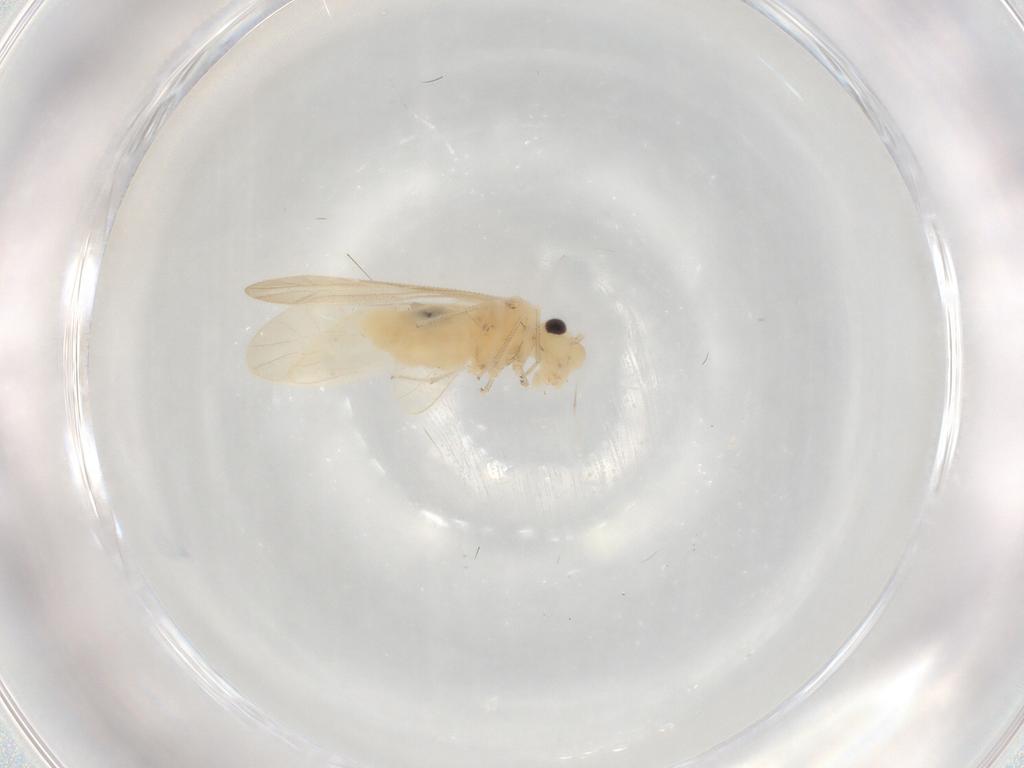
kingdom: Animalia
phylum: Arthropoda
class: Insecta
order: Psocodea
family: Caeciliusidae
